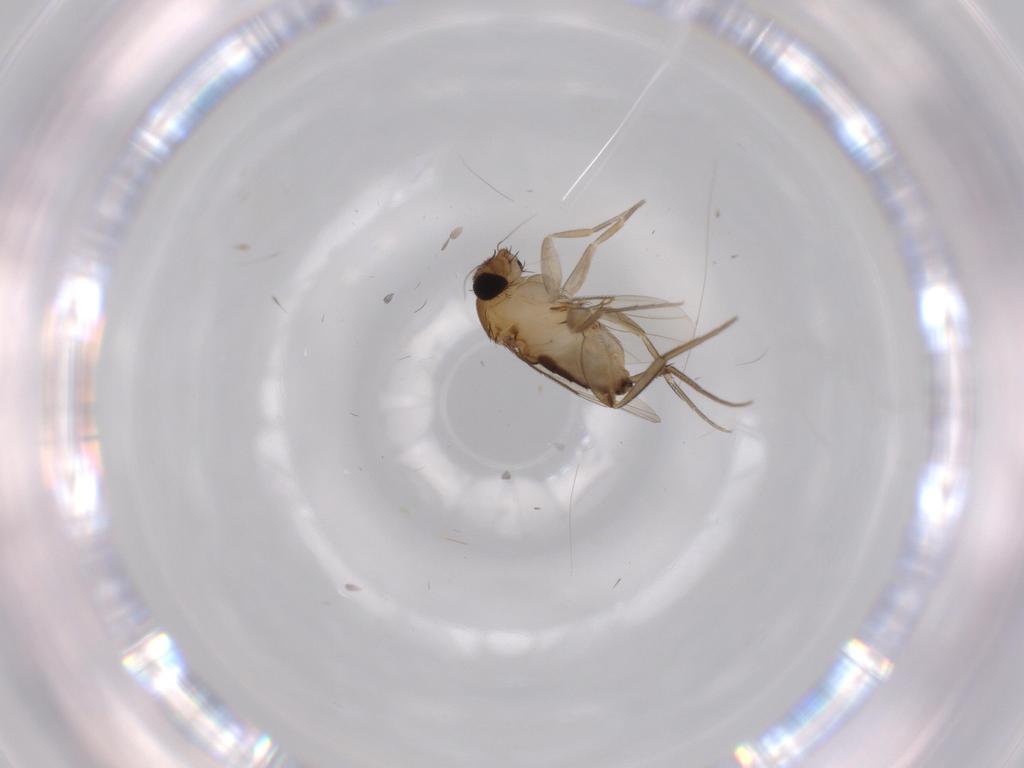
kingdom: Animalia
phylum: Arthropoda
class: Insecta
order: Diptera
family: Phoridae
